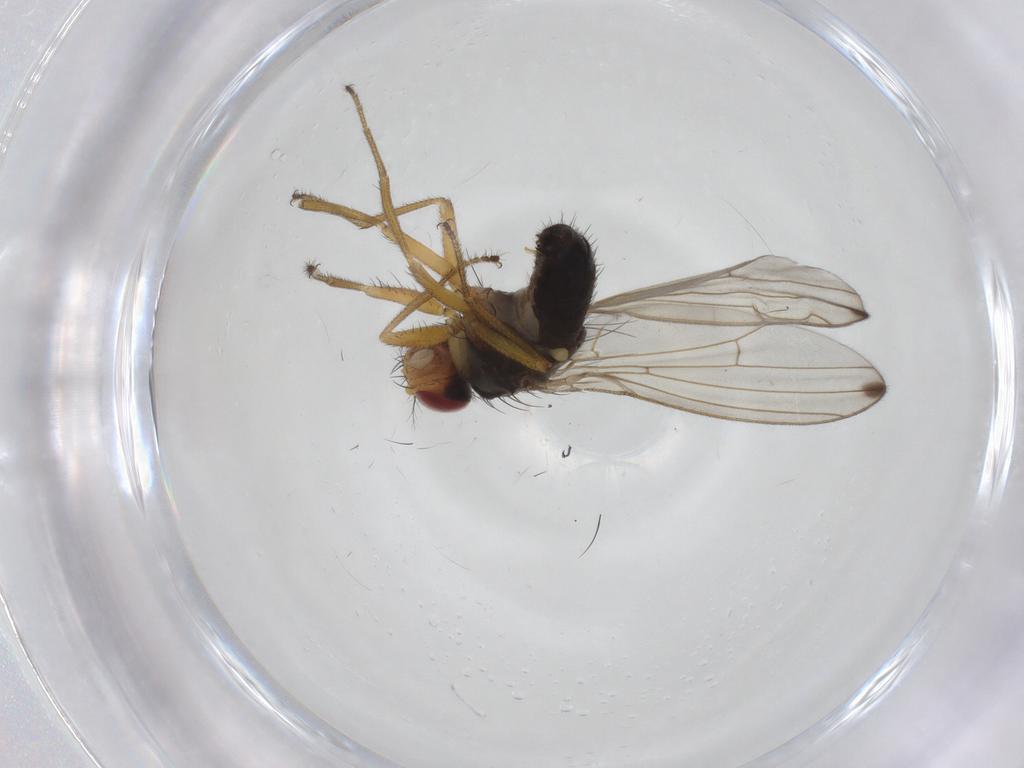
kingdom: Animalia
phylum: Arthropoda
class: Insecta
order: Diptera
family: Drosophilidae
